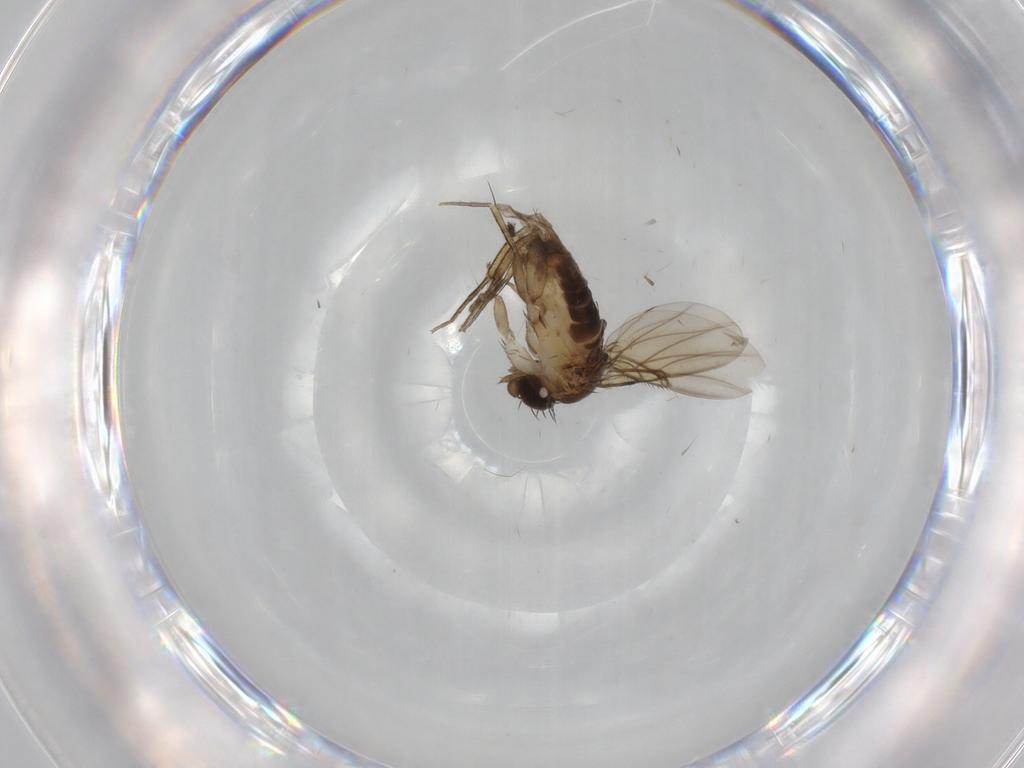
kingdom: Animalia
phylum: Arthropoda
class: Insecta
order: Diptera
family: Sciaridae
